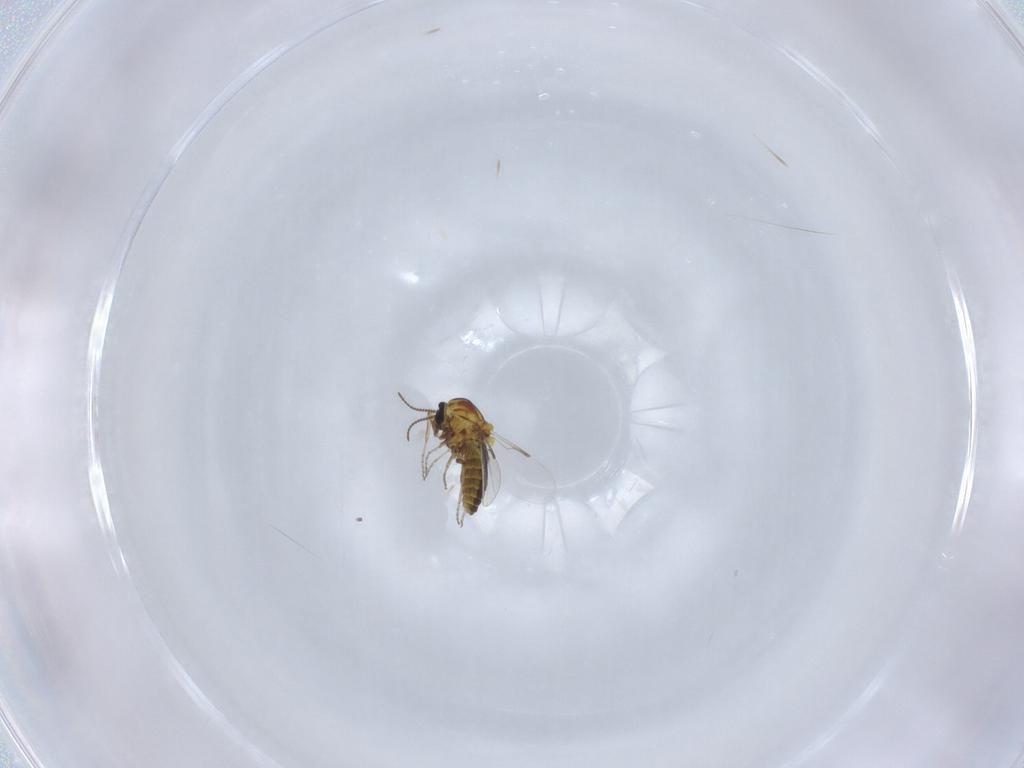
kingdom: Animalia
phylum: Arthropoda
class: Insecta
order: Diptera
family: Ceratopogonidae
